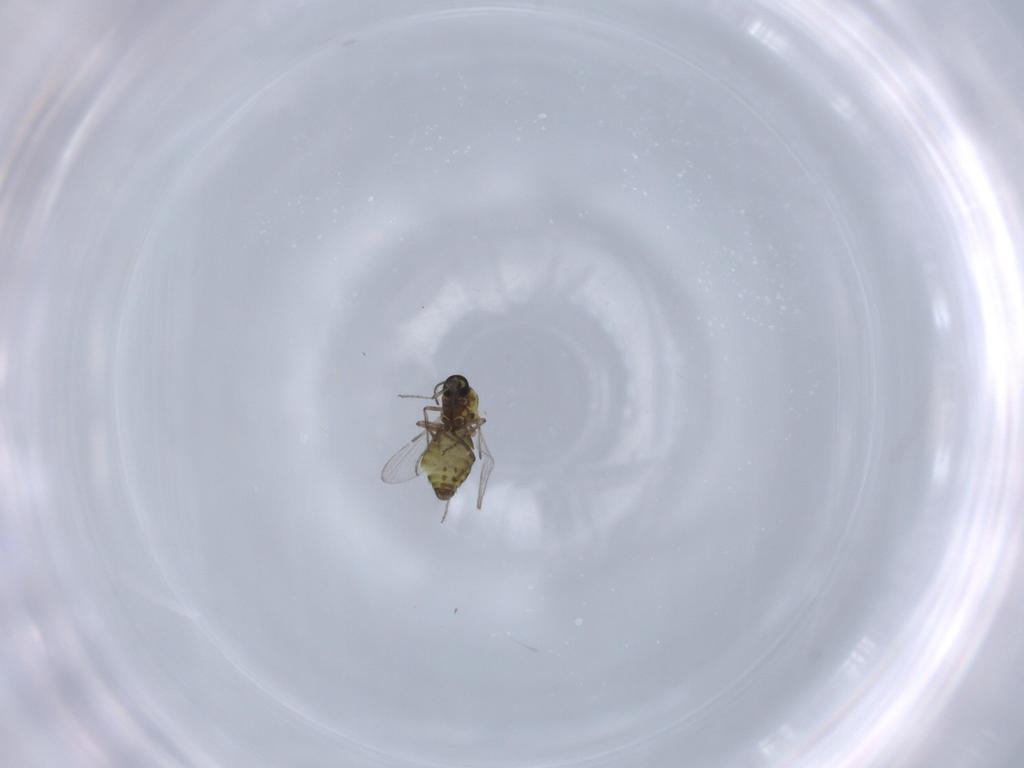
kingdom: Animalia
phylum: Arthropoda
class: Insecta
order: Diptera
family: Ceratopogonidae
